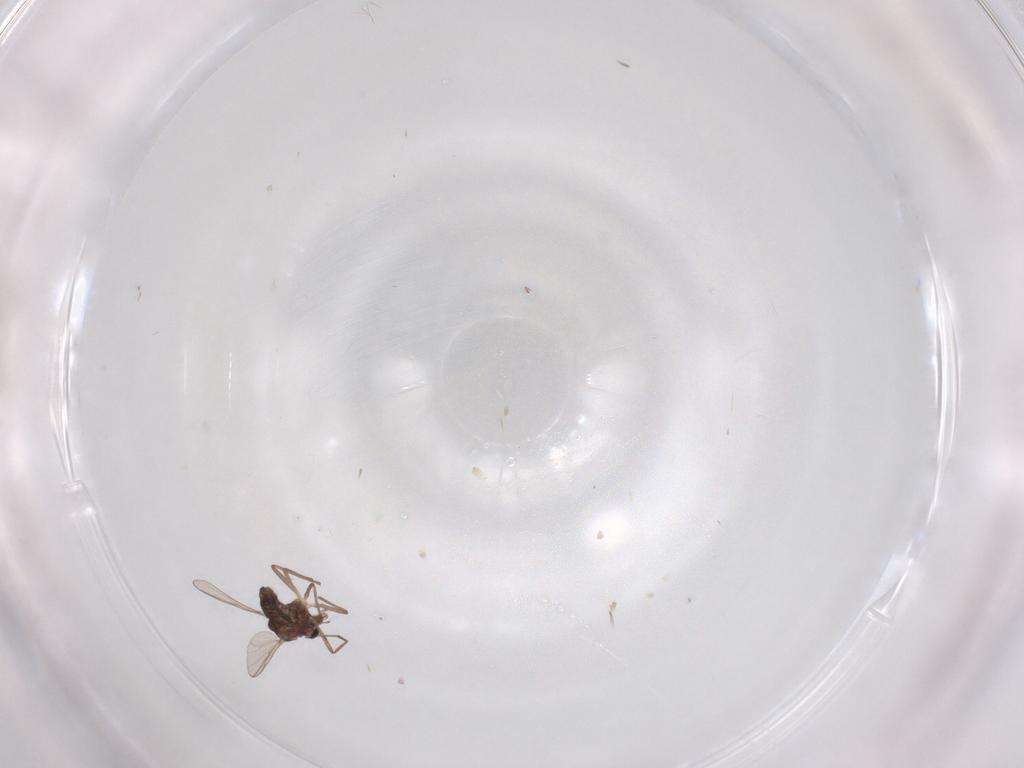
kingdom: Animalia
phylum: Arthropoda
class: Insecta
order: Diptera
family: Chironomidae
